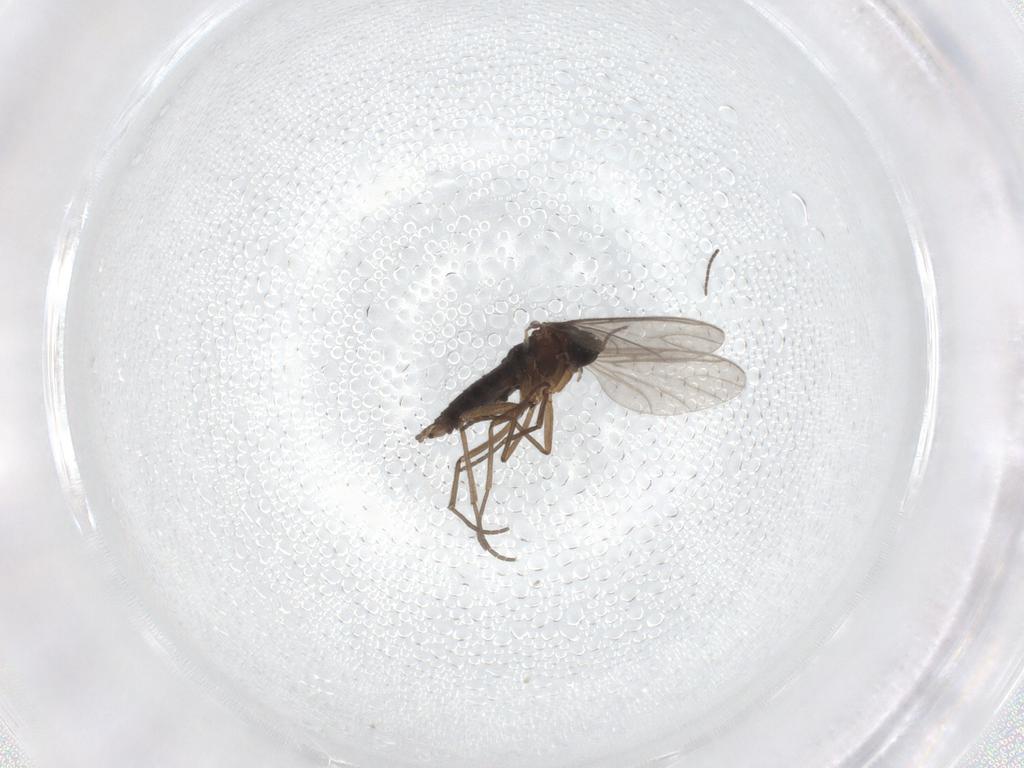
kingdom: Animalia
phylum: Arthropoda
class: Insecta
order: Diptera
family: Sciaridae
